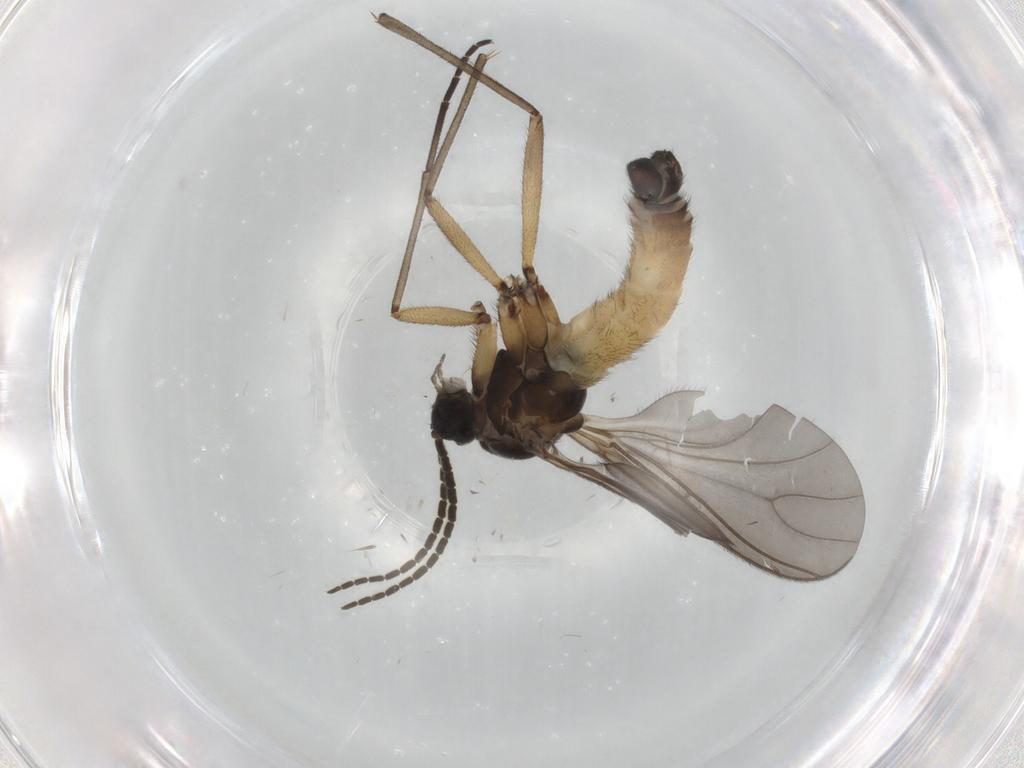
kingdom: Animalia
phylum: Arthropoda
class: Insecta
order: Diptera
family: Sciaridae
